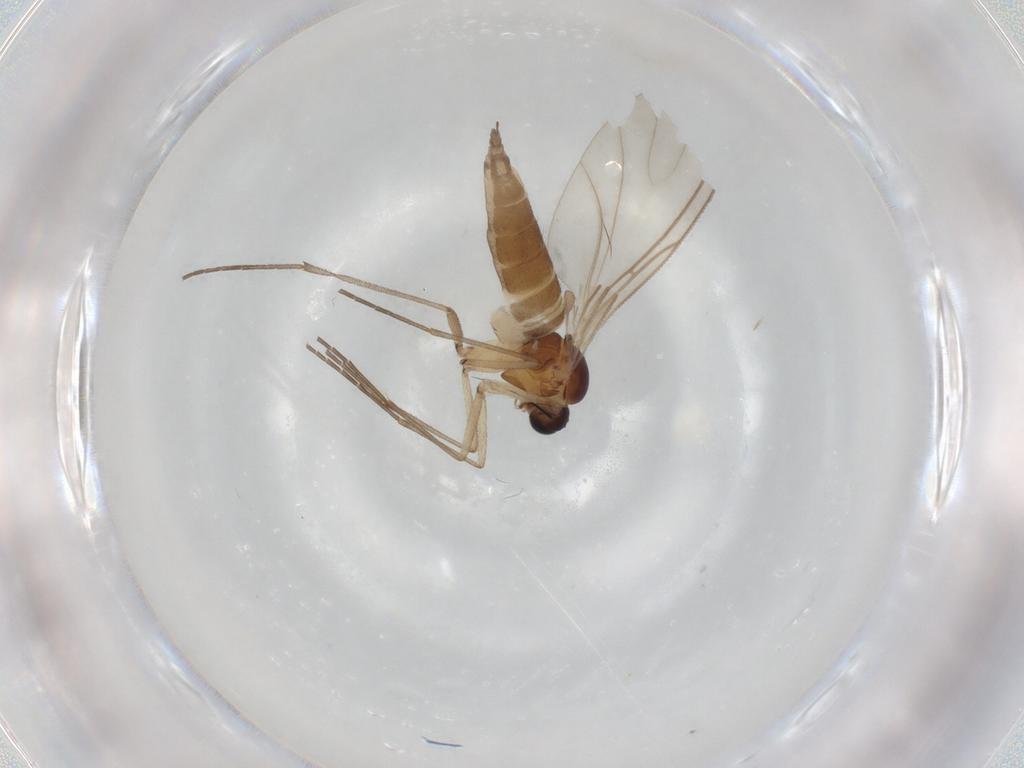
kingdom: Animalia
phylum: Arthropoda
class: Insecta
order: Diptera
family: Sciaridae
